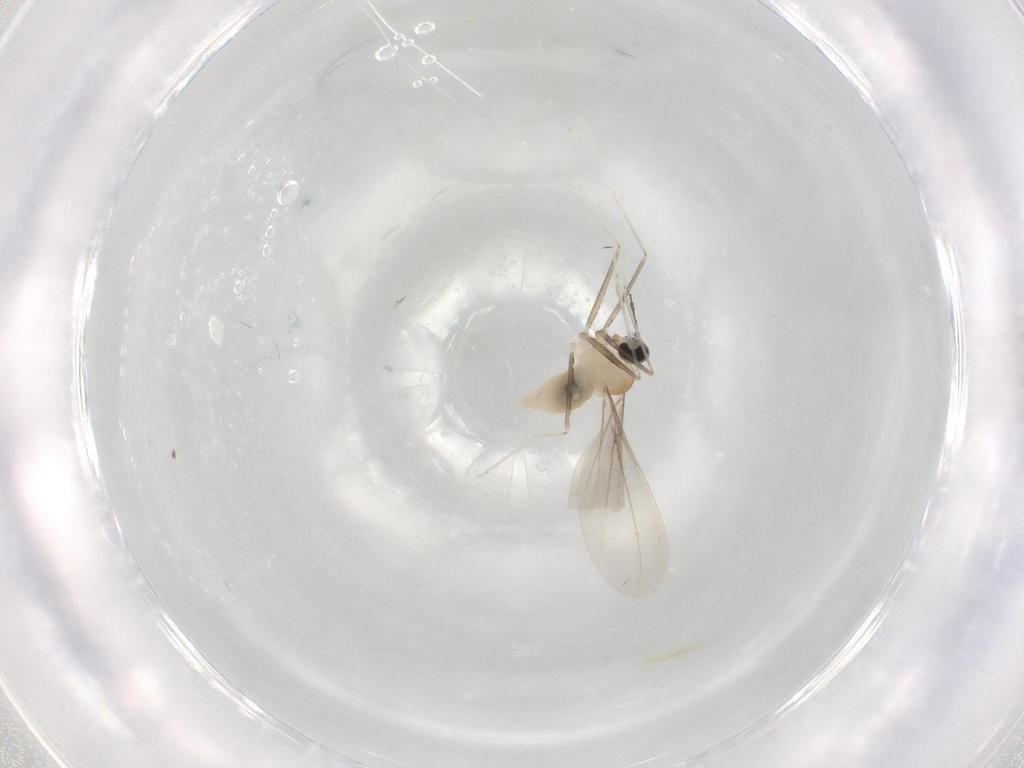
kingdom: Animalia
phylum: Arthropoda
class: Insecta
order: Diptera
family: Cecidomyiidae
